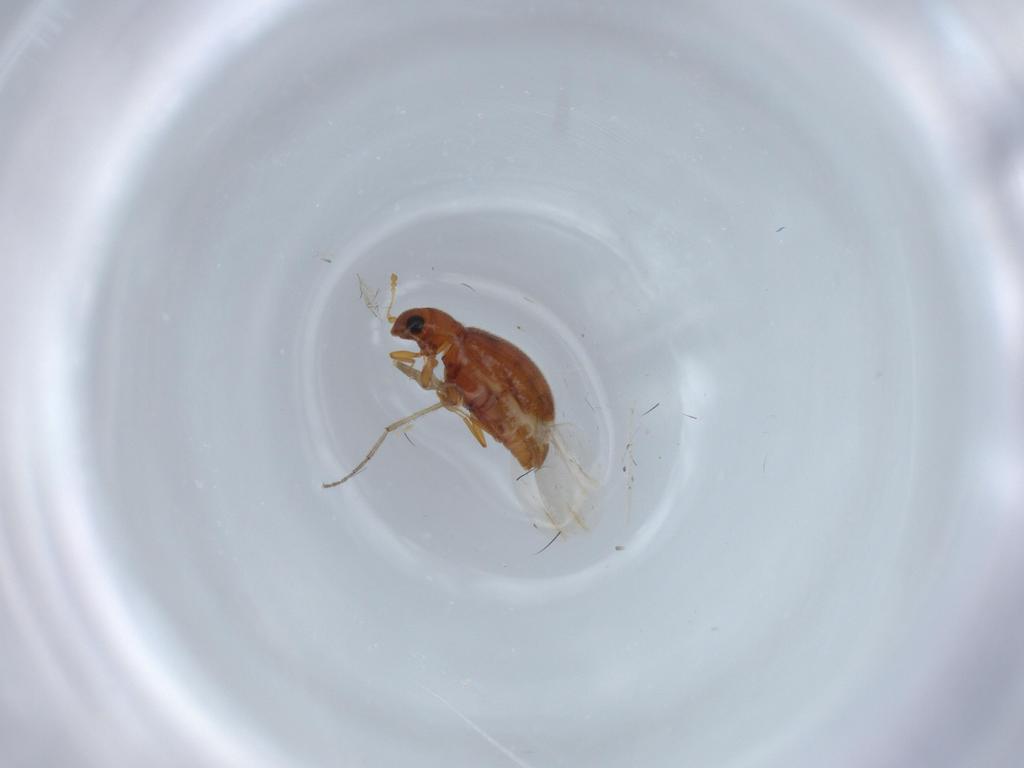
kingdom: Animalia
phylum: Arthropoda
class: Insecta
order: Coleoptera
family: Latridiidae
